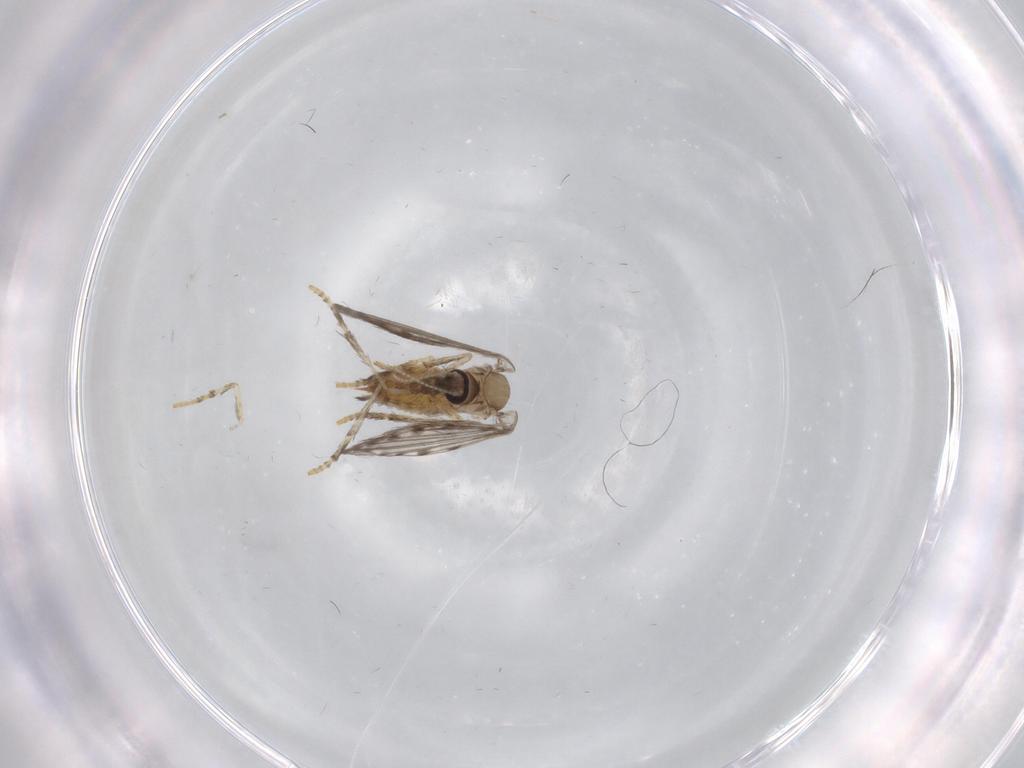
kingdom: Animalia
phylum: Arthropoda
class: Insecta
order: Diptera
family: Psychodidae
